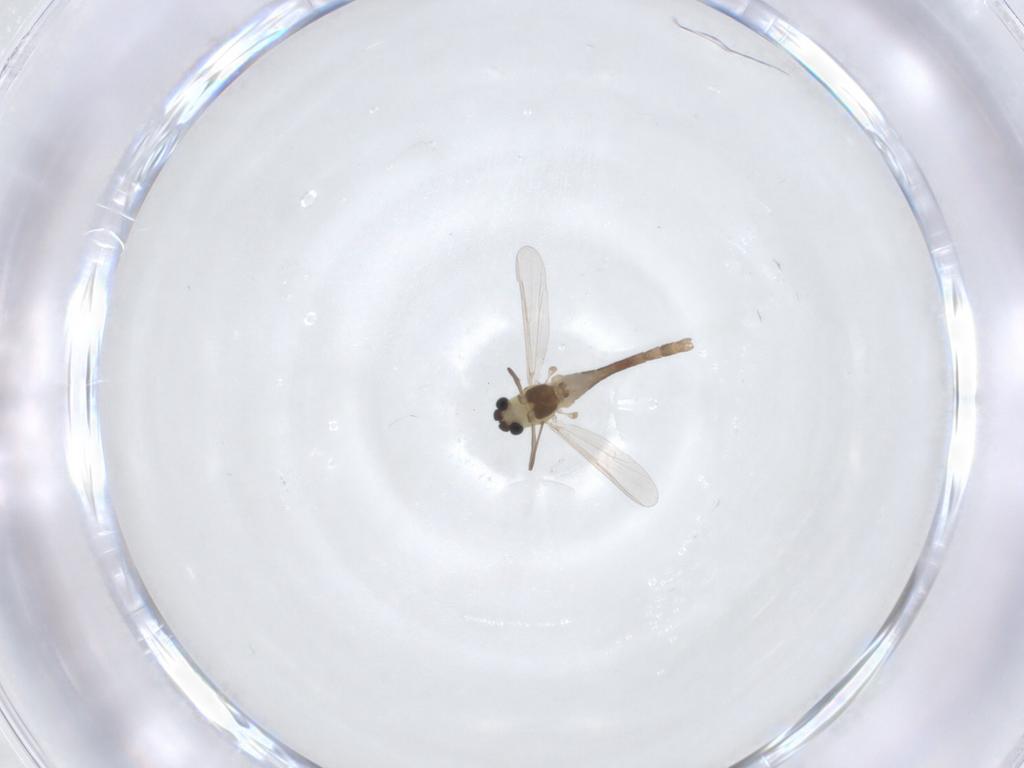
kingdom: Animalia
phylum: Arthropoda
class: Insecta
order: Diptera
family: Chironomidae
